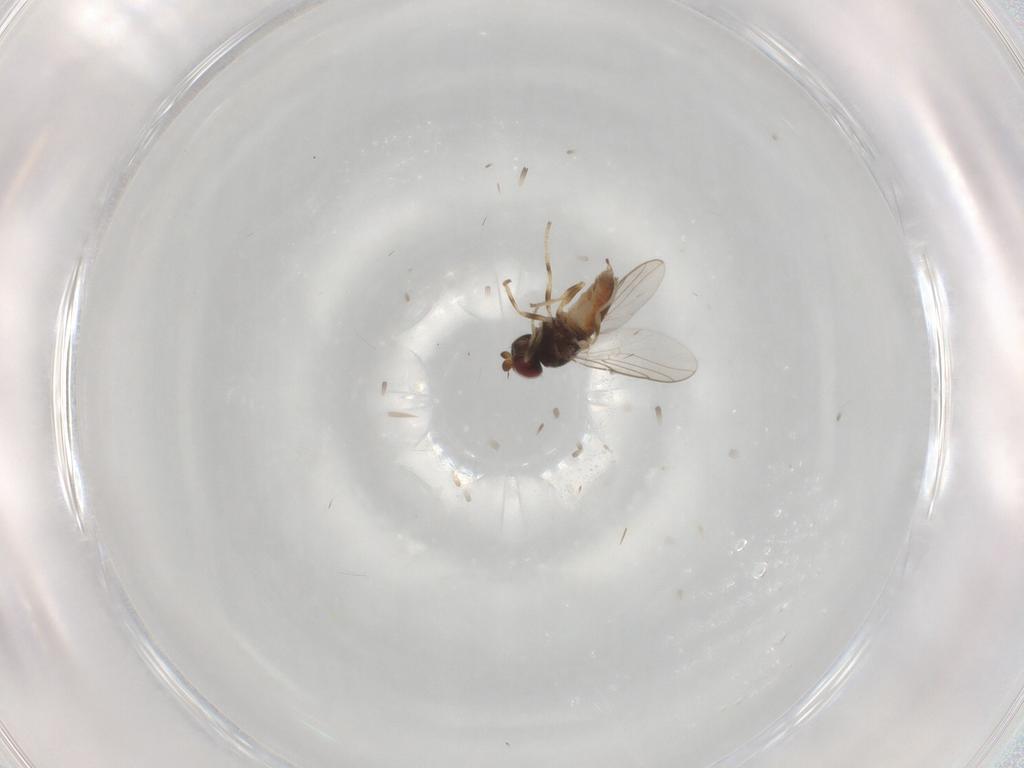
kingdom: Animalia
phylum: Arthropoda
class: Insecta
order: Diptera
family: Chloropidae
